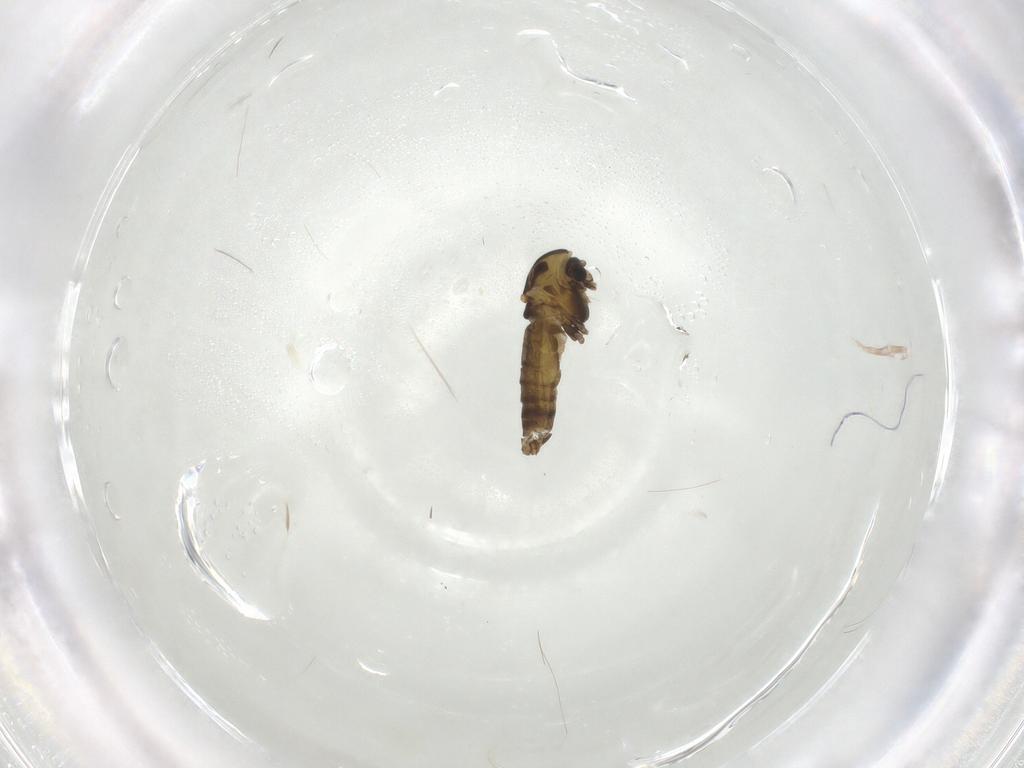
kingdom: Animalia
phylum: Arthropoda
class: Insecta
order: Diptera
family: Chironomidae
